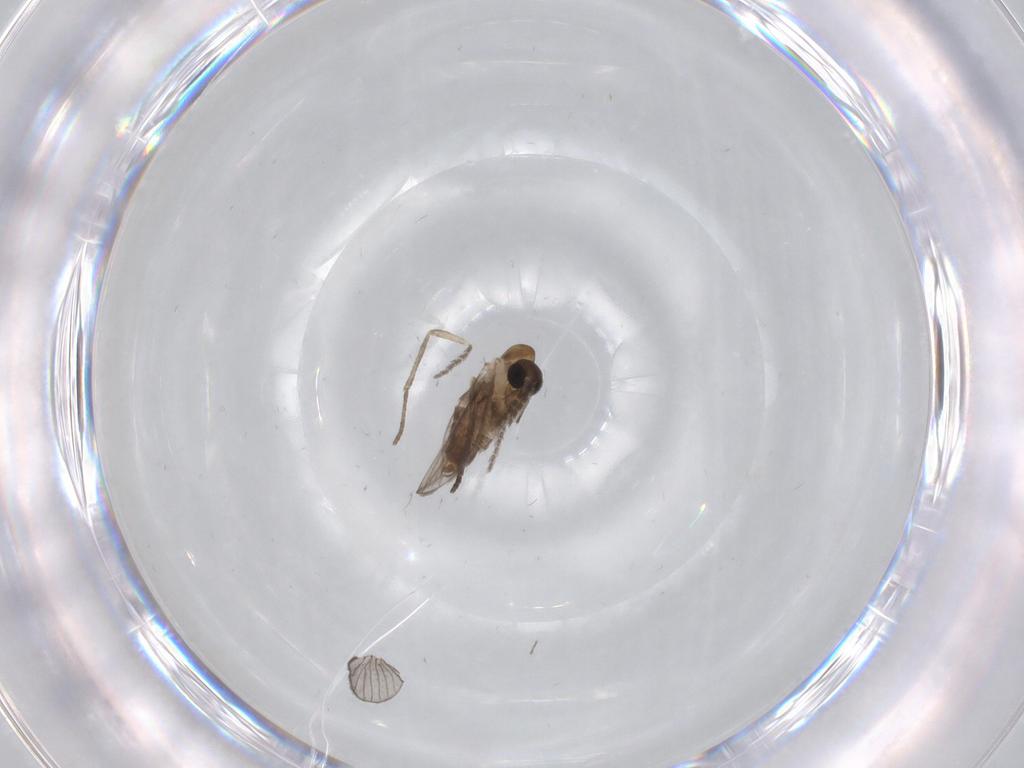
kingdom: Animalia
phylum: Arthropoda
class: Insecta
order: Diptera
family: Psychodidae
